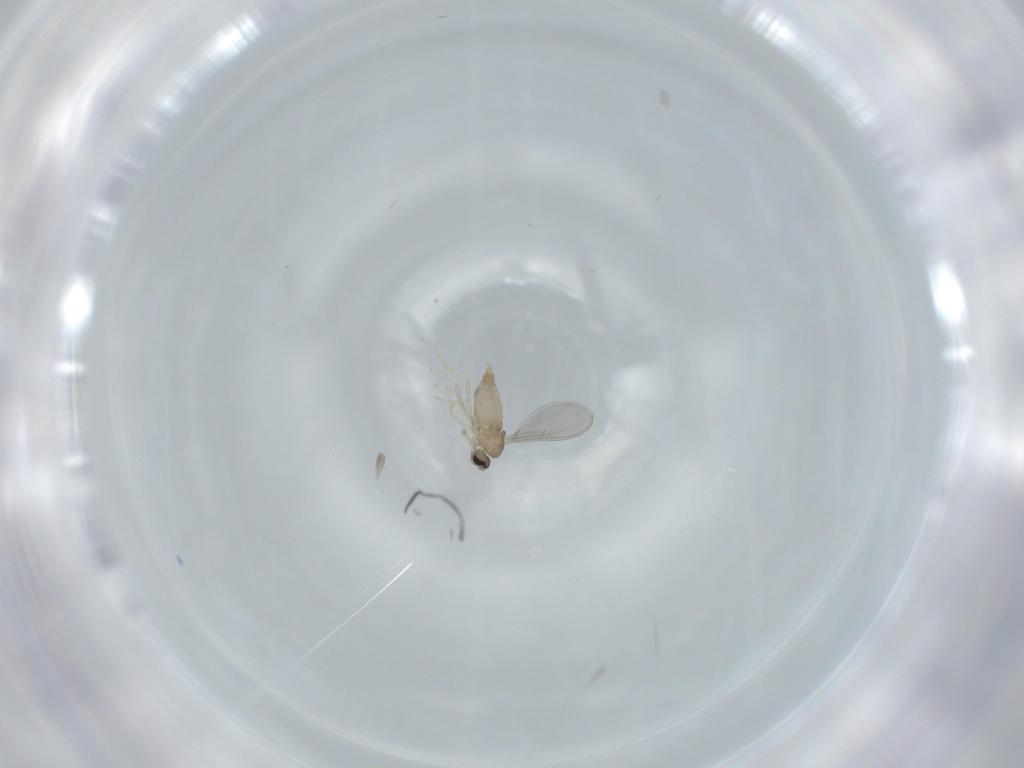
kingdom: Animalia
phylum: Arthropoda
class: Insecta
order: Diptera
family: Cecidomyiidae
